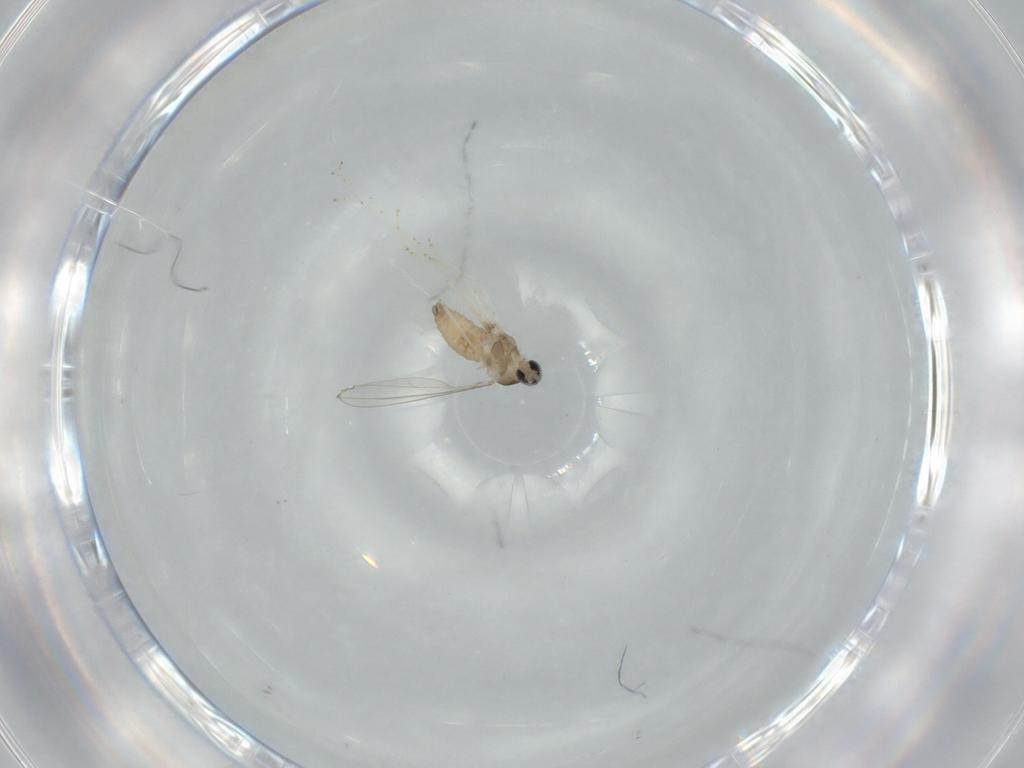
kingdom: Animalia
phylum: Arthropoda
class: Insecta
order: Diptera
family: Cecidomyiidae
